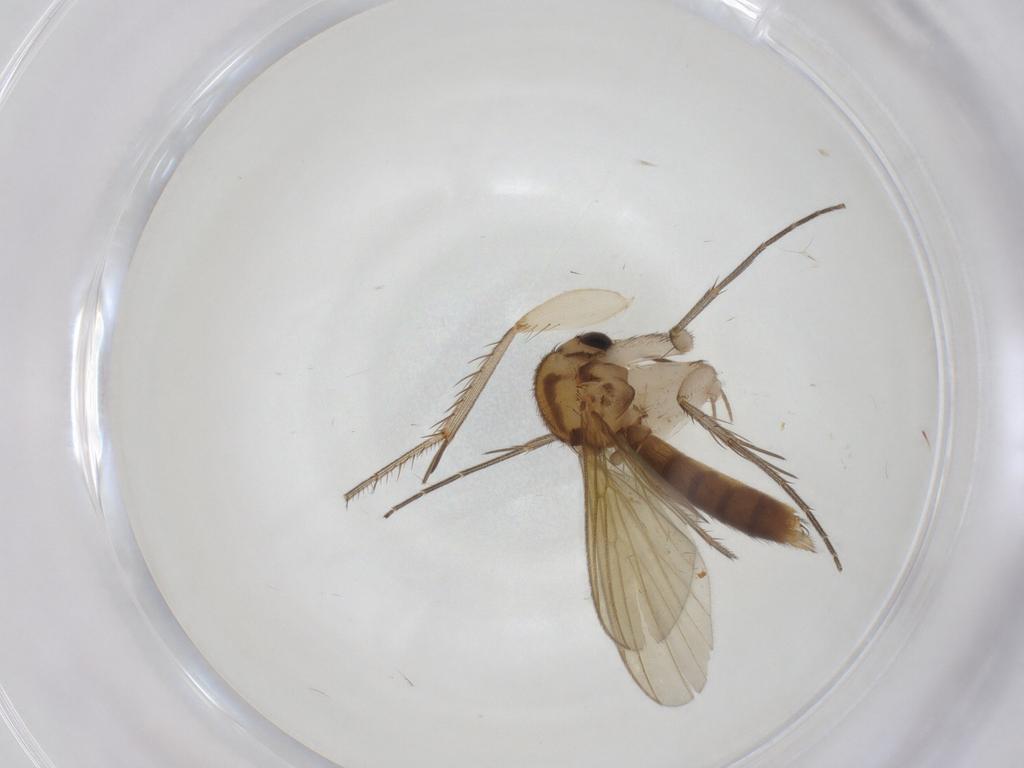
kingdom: Animalia
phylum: Arthropoda
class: Insecta
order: Diptera
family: Mycetophilidae
